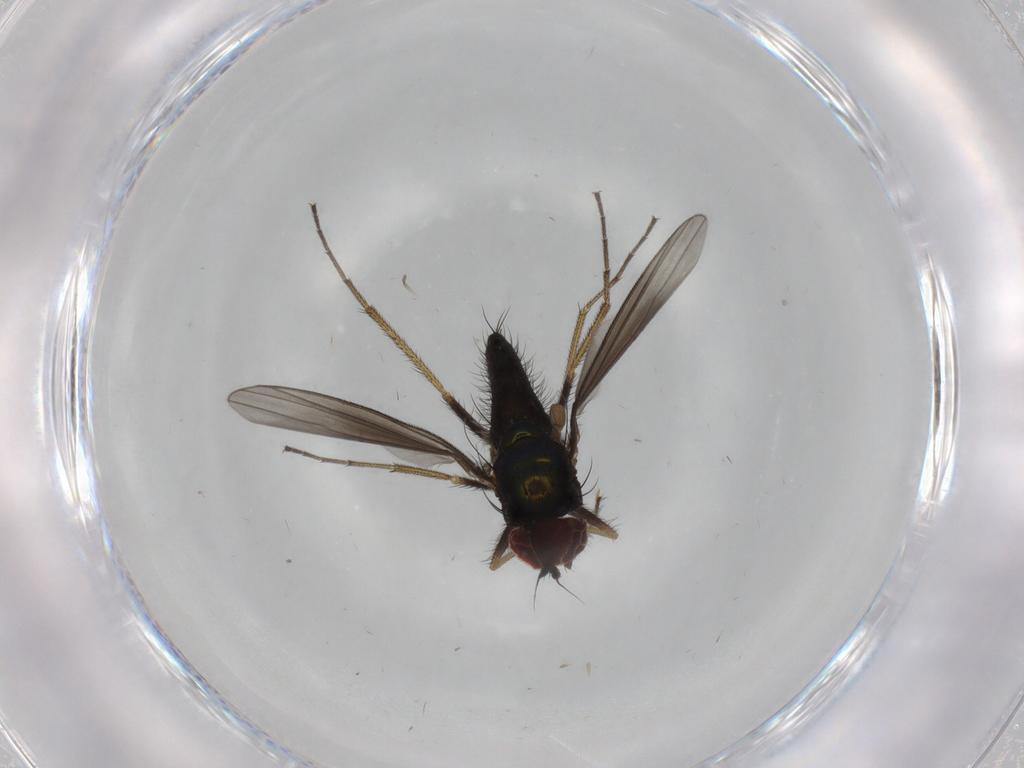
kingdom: Animalia
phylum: Arthropoda
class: Insecta
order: Diptera
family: Dolichopodidae
